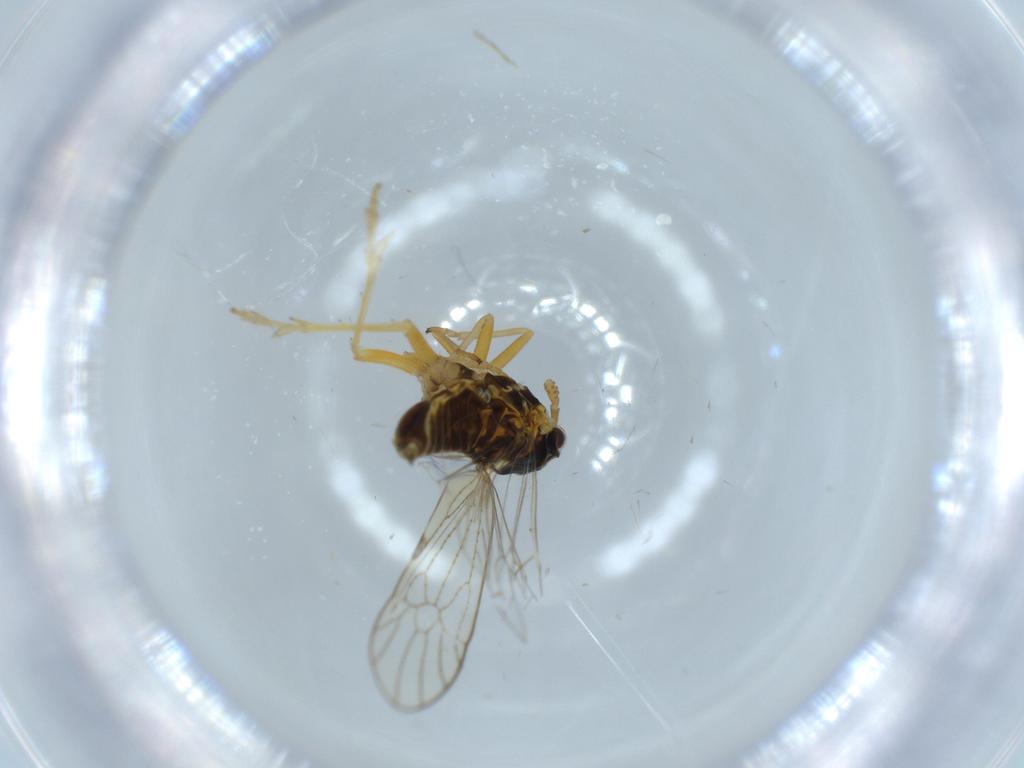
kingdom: Animalia
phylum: Arthropoda
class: Insecta
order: Diptera
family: Cecidomyiidae
